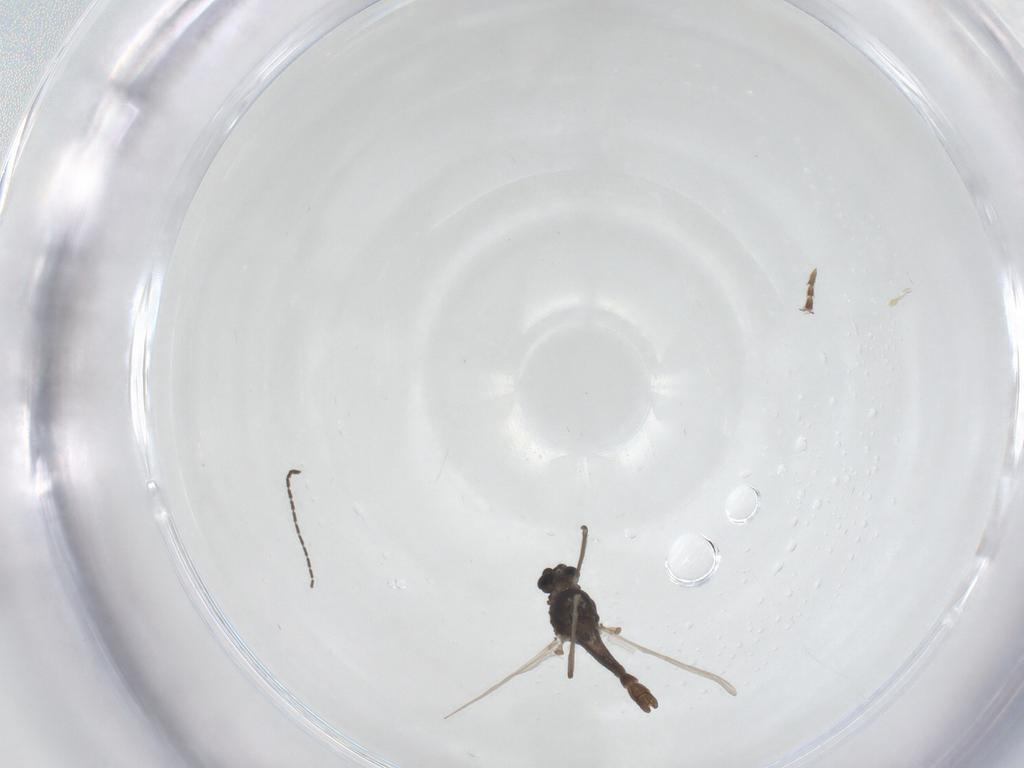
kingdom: Animalia
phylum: Arthropoda
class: Insecta
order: Diptera
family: Sciaridae
